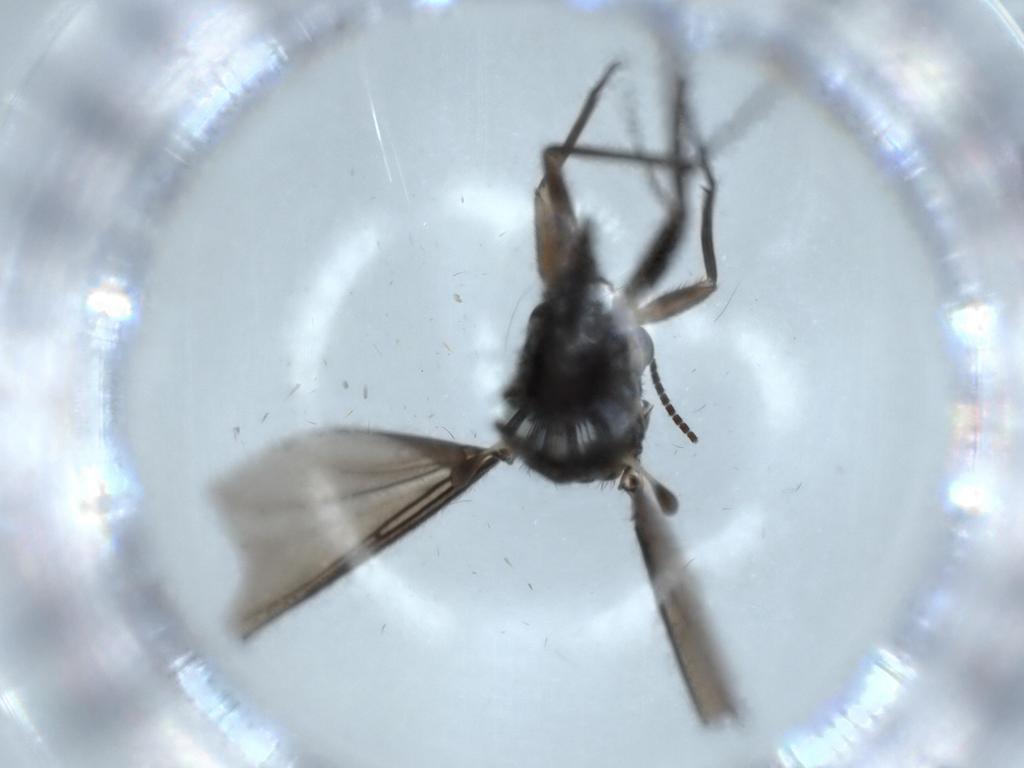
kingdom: Animalia
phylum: Arthropoda
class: Insecta
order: Diptera
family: Sciaridae
